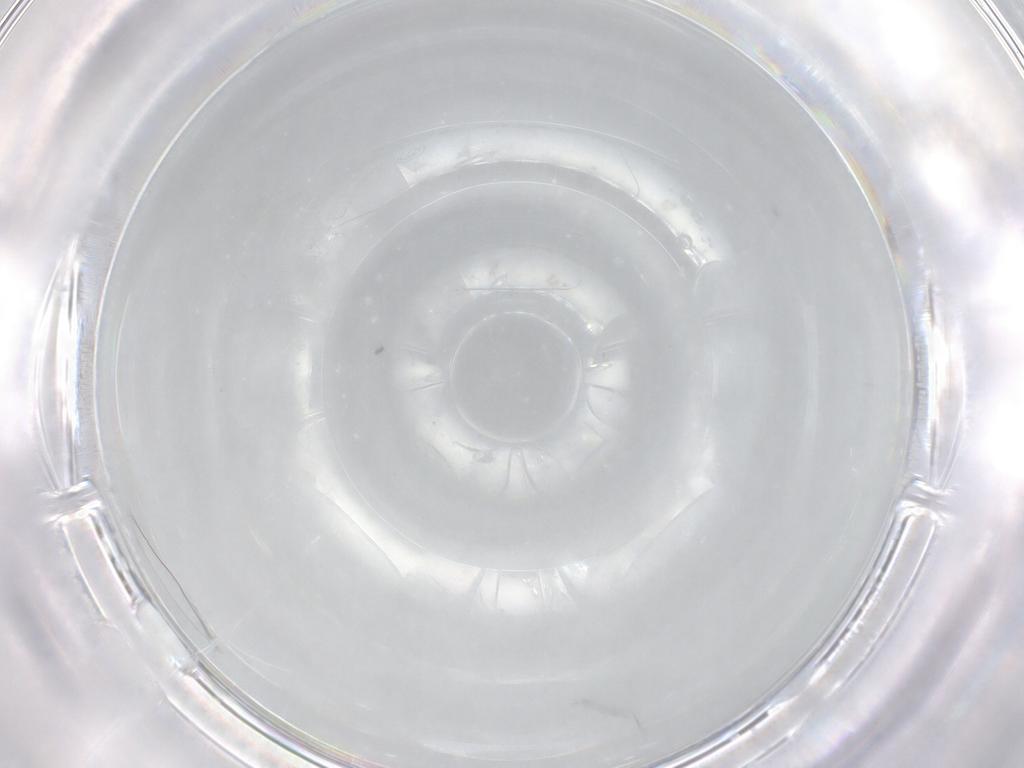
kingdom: Animalia
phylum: Arthropoda
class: Insecta
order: Diptera
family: Cecidomyiidae
